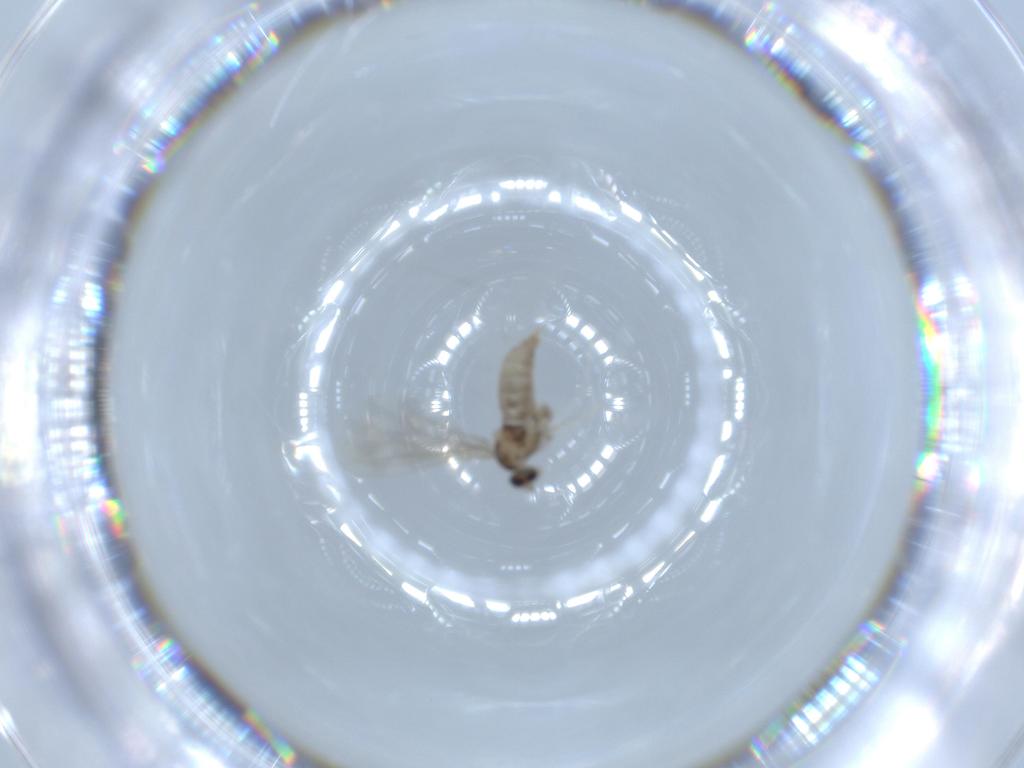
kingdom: Animalia
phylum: Arthropoda
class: Insecta
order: Diptera
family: Cecidomyiidae
